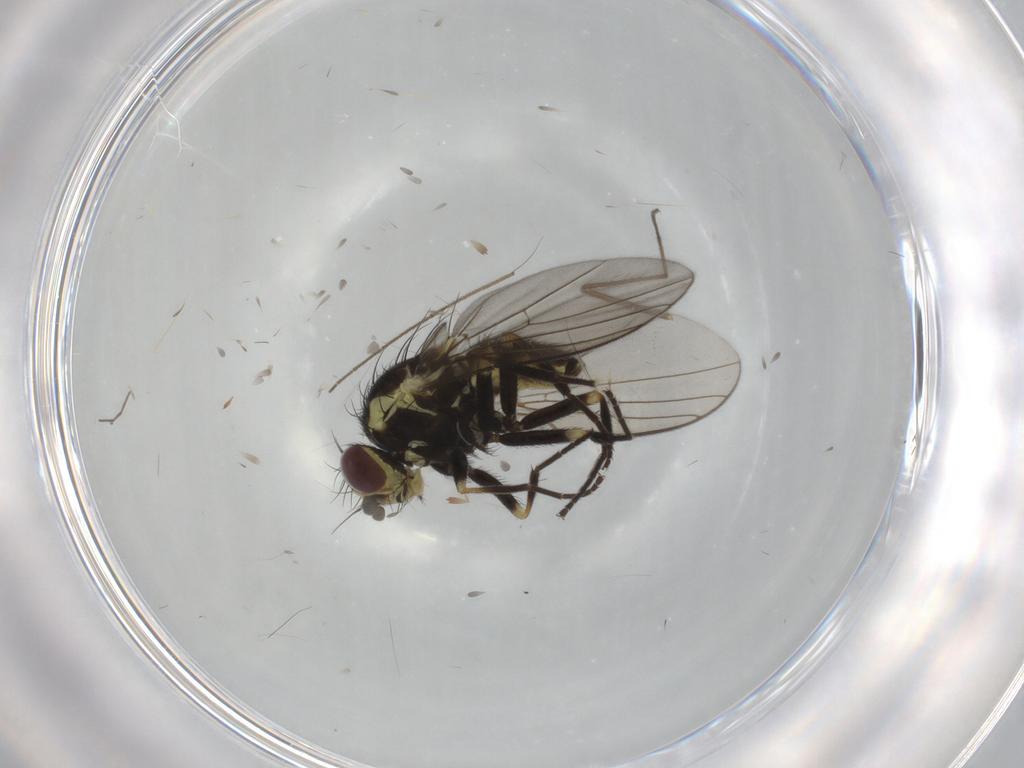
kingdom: Animalia
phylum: Arthropoda
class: Insecta
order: Diptera
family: Agromyzidae
